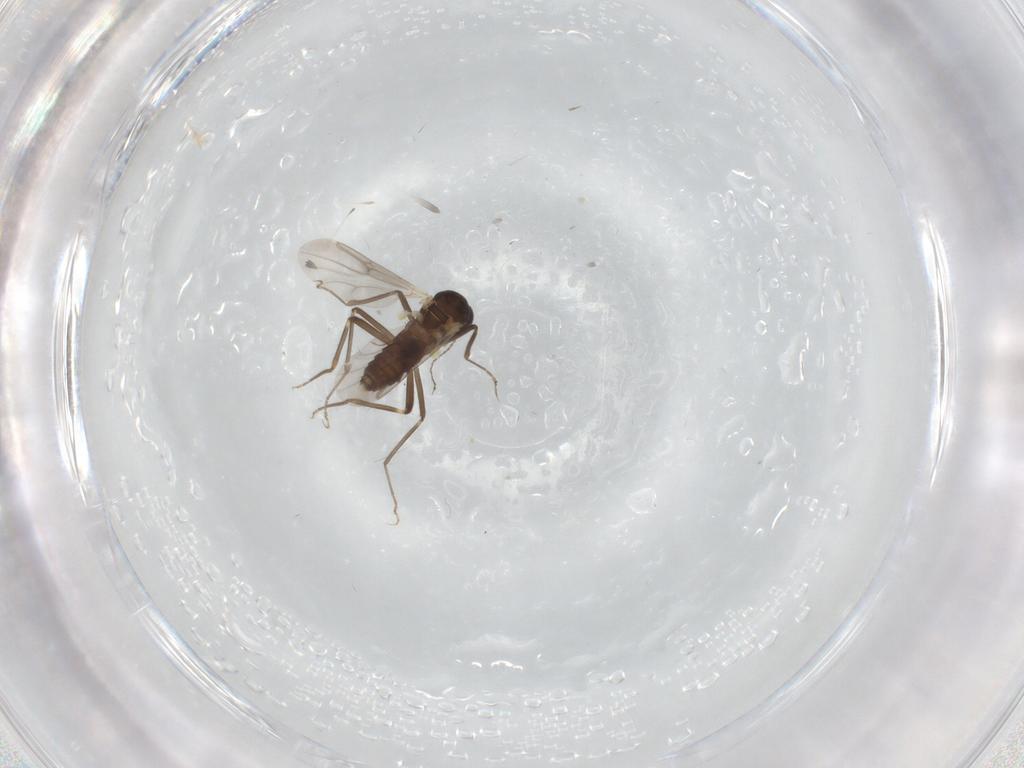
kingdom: Animalia
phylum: Arthropoda
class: Insecta
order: Diptera
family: Ceratopogonidae
